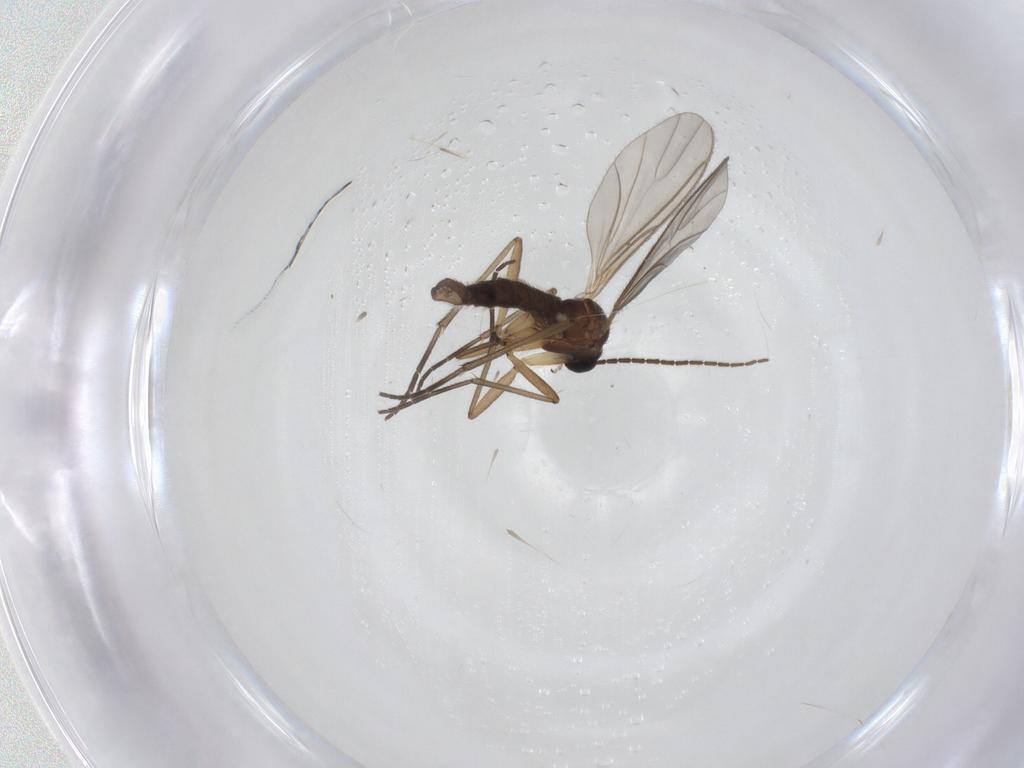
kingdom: Animalia
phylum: Arthropoda
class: Insecta
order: Diptera
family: Sciaridae
